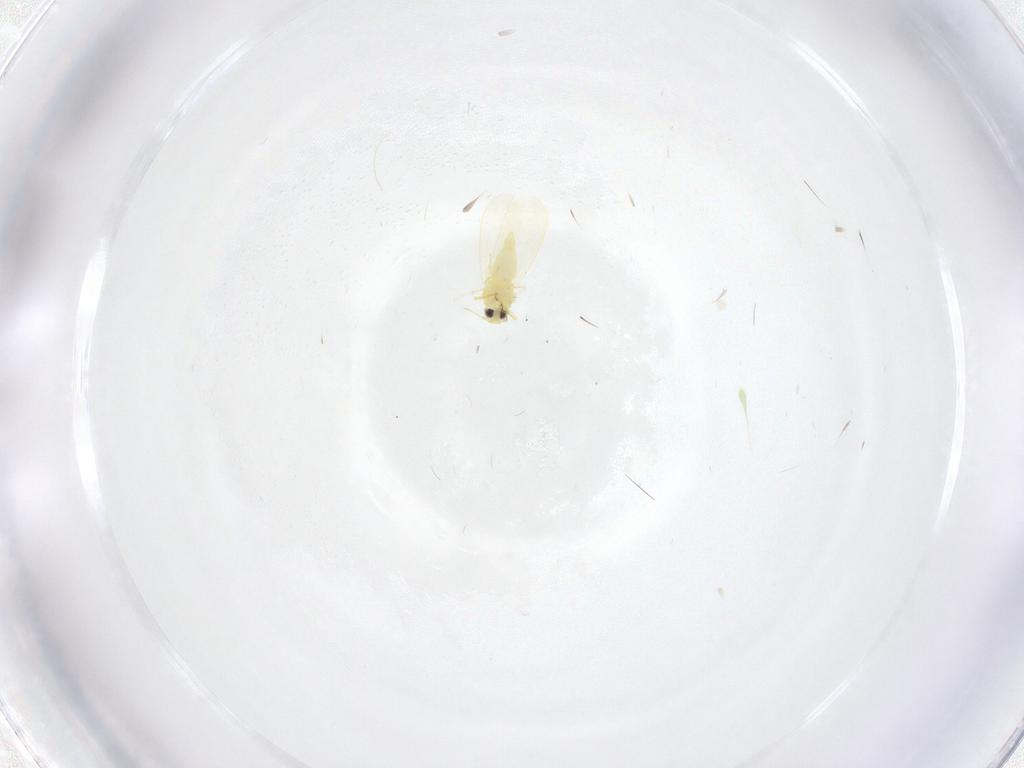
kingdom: Animalia
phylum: Arthropoda
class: Insecta
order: Hemiptera
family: Aleyrodidae
